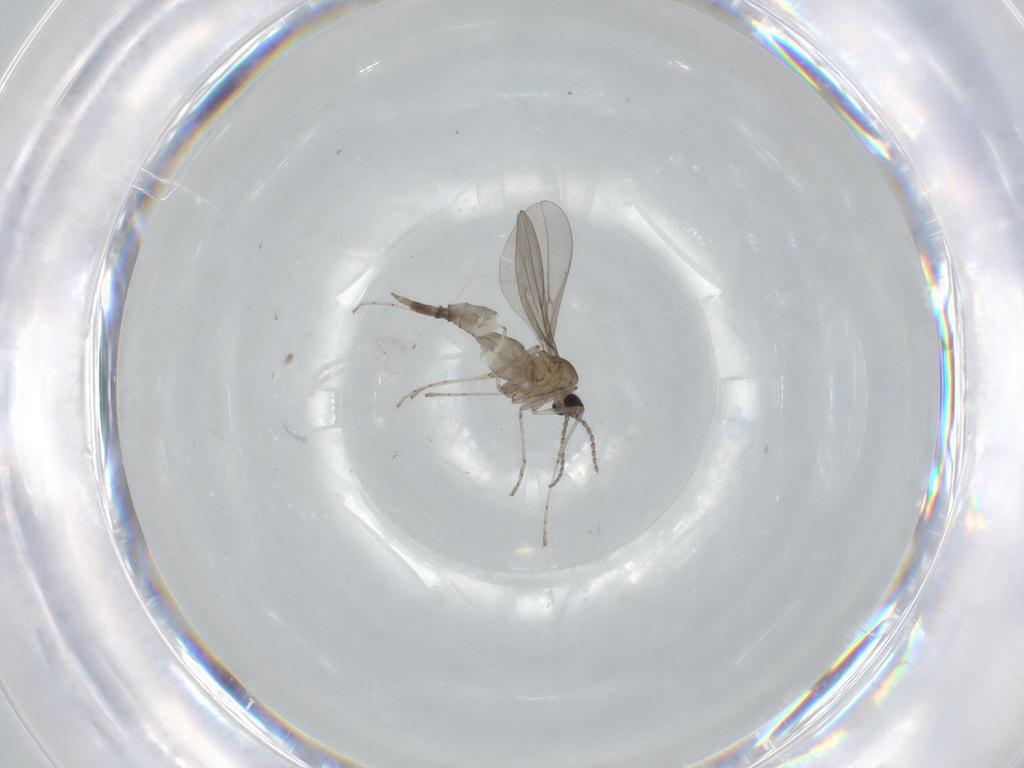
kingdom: Animalia
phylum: Arthropoda
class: Insecta
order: Diptera
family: Cecidomyiidae
